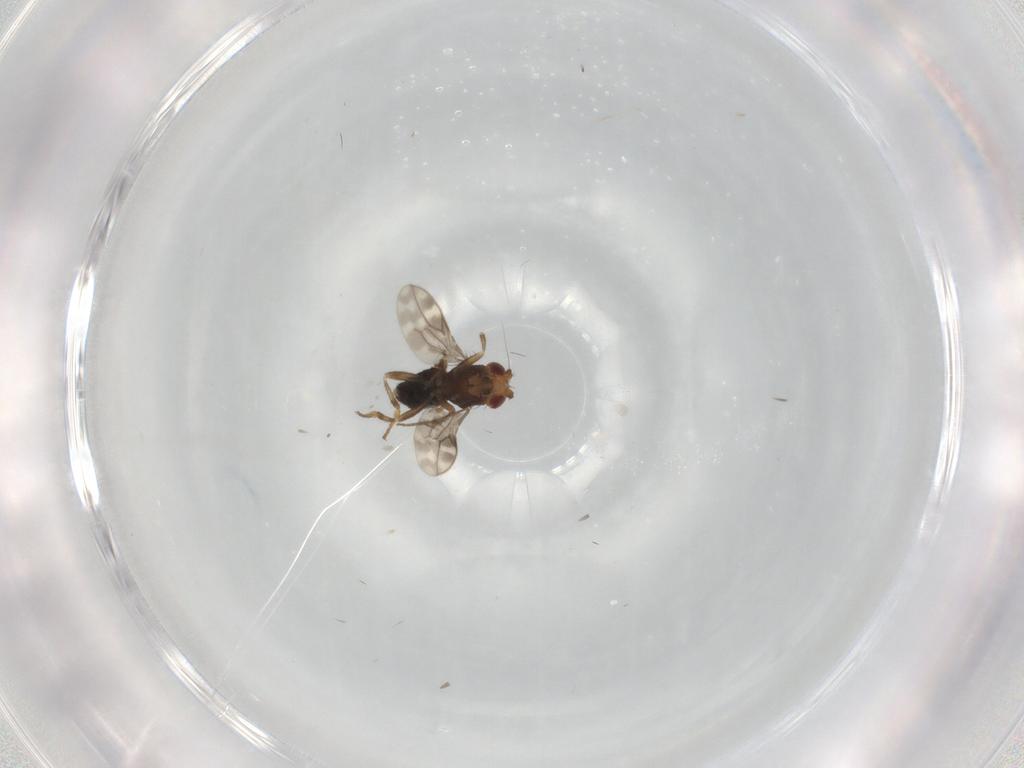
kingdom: Animalia
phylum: Arthropoda
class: Insecta
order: Diptera
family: Sphaeroceridae
